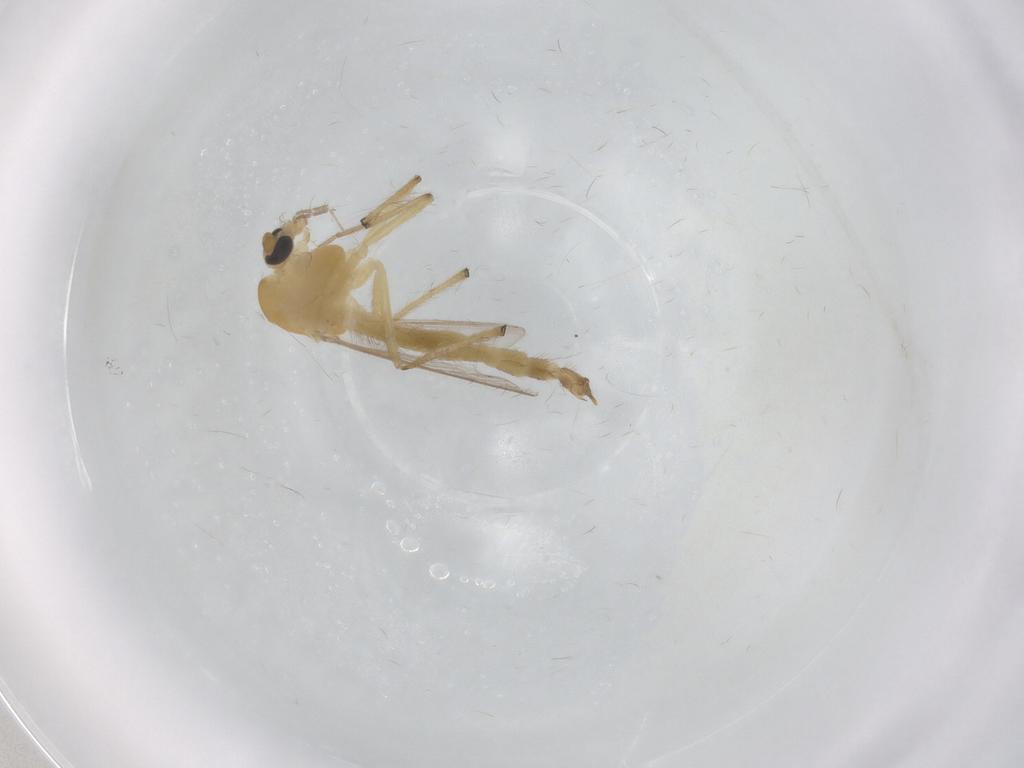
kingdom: Animalia
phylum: Arthropoda
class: Insecta
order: Diptera
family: Chironomidae
